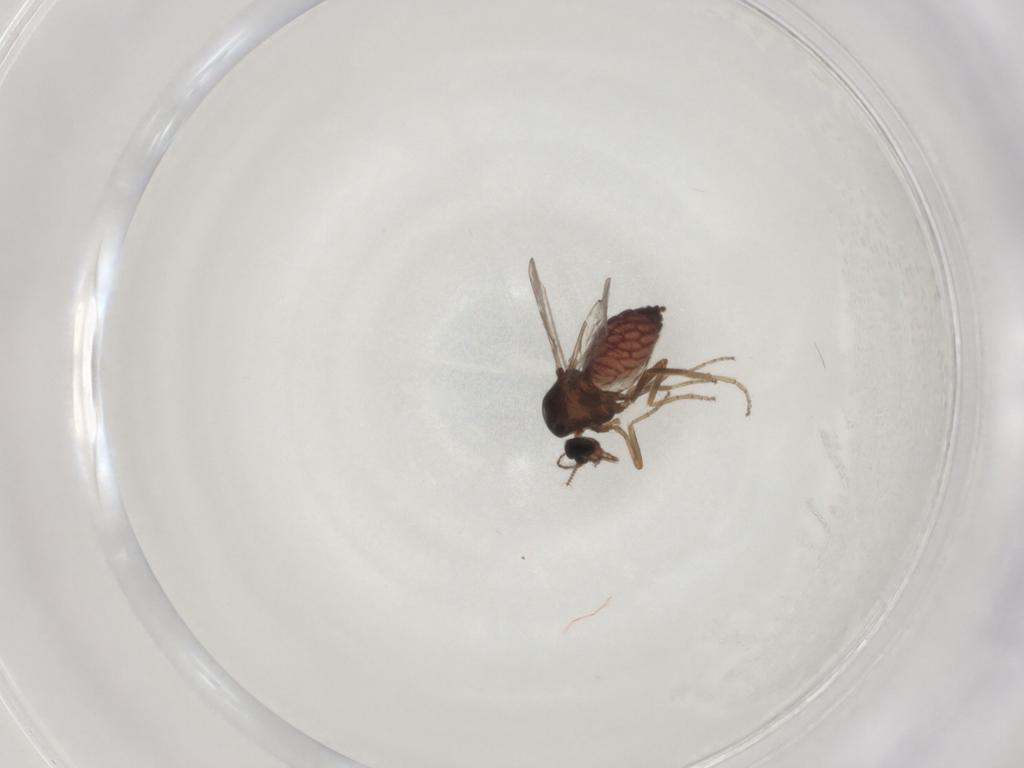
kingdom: Animalia
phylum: Arthropoda
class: Insecta
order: Diptera
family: Ceratopogonidae
